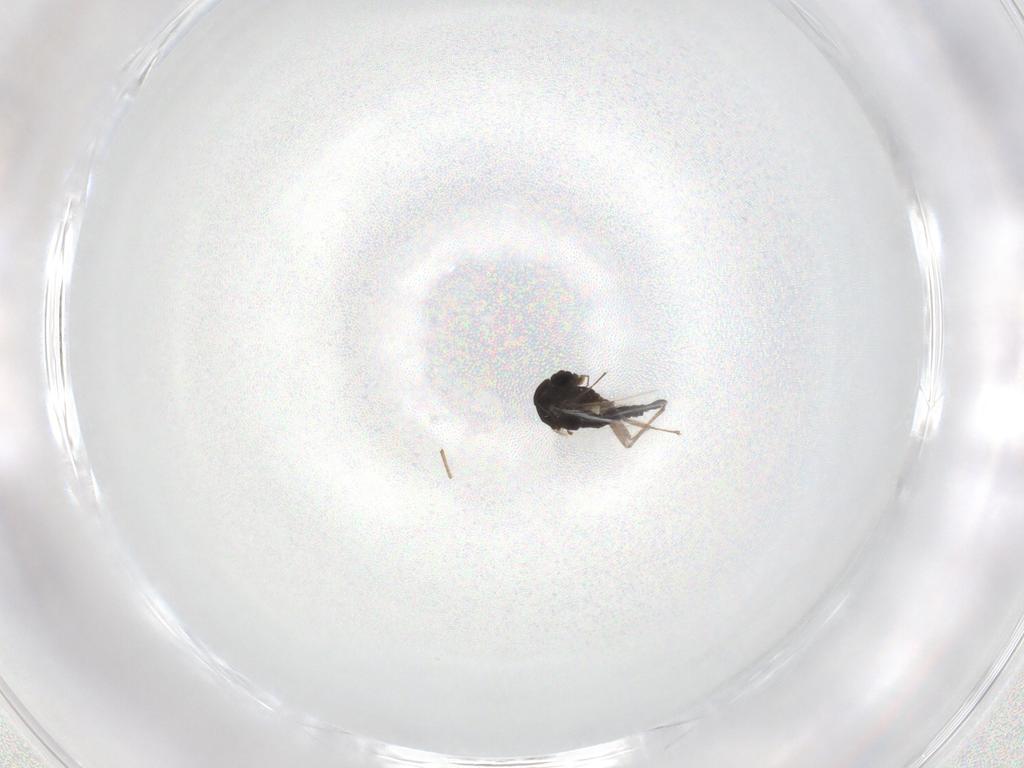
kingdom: Animalia
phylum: Arthropoda
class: Insecta
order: Diptera
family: Chironomidae
